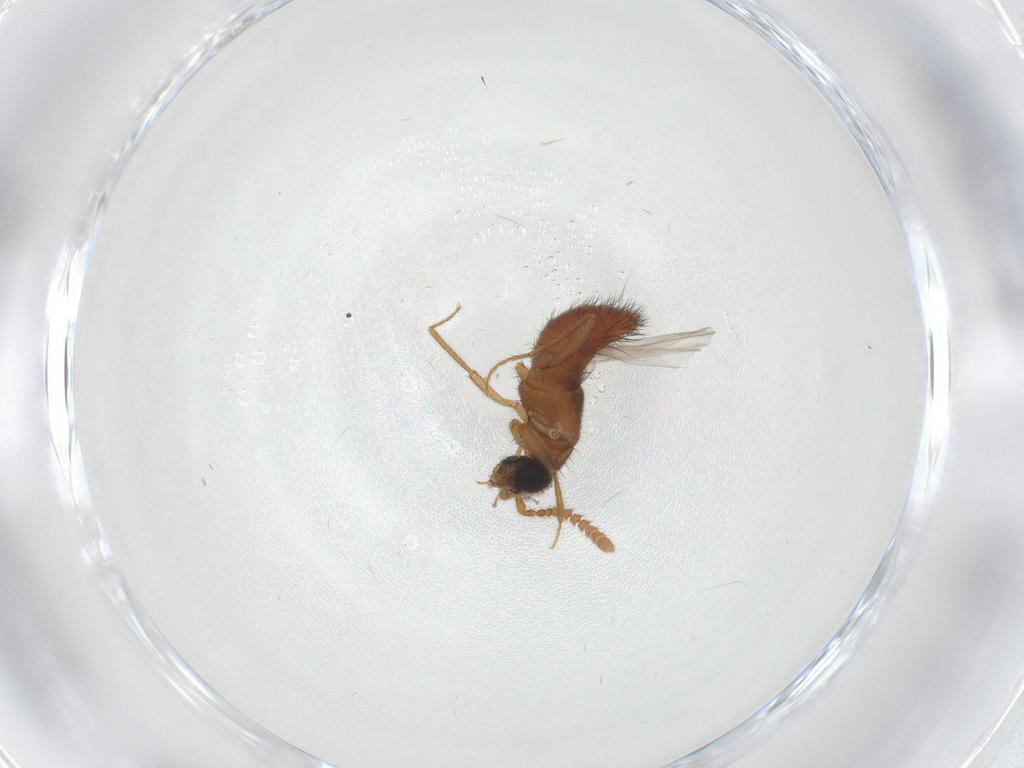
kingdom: Animalia
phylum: Arthropoda
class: Insecta
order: Coleoptera
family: Staphylinidae
